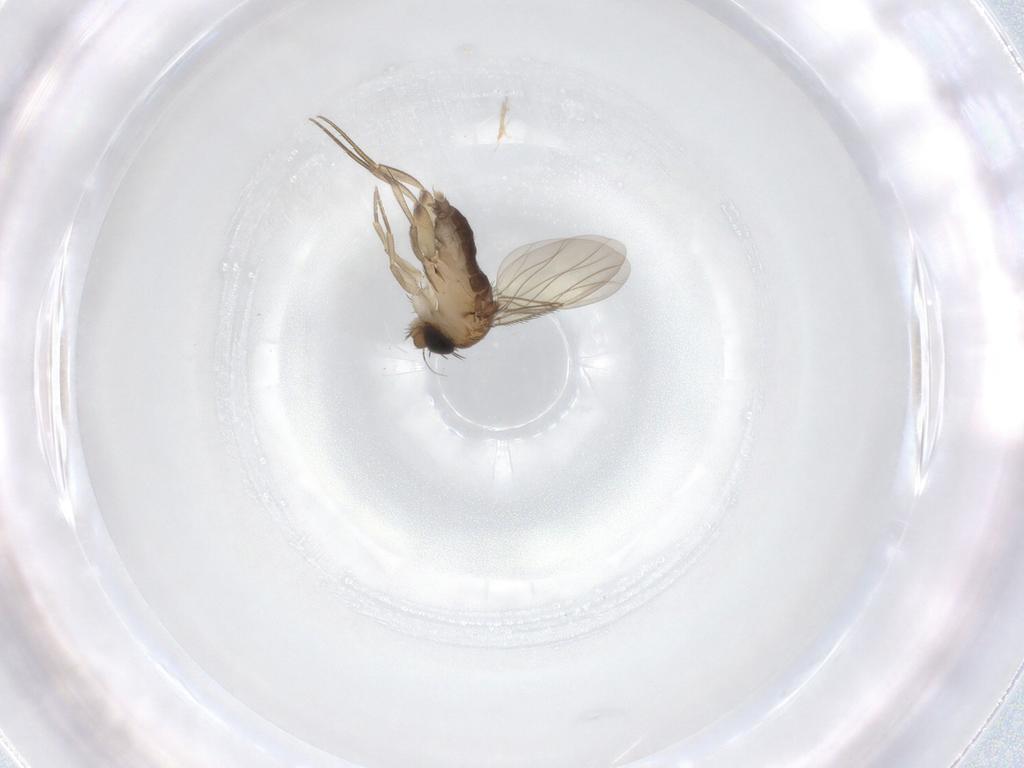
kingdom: Animalia
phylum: Arthropoda
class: Insecta
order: Diptera
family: Phoridae
